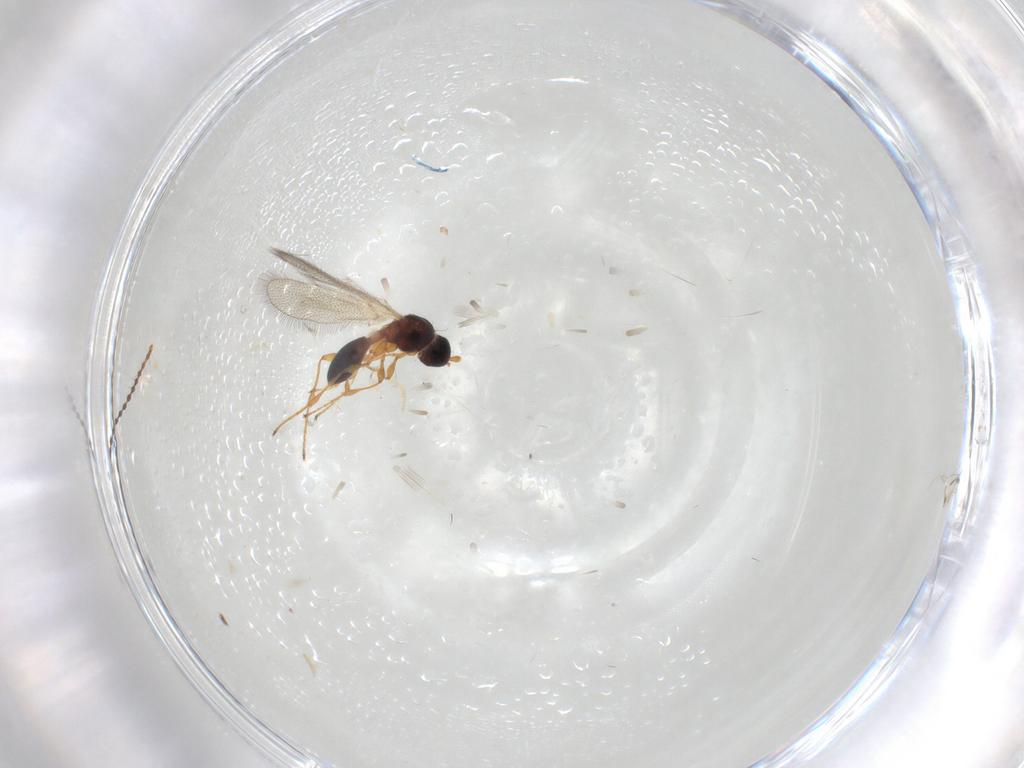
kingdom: Animalia
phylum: Arthropoda
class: Insecta
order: Hymenoptera
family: Diapriidae
